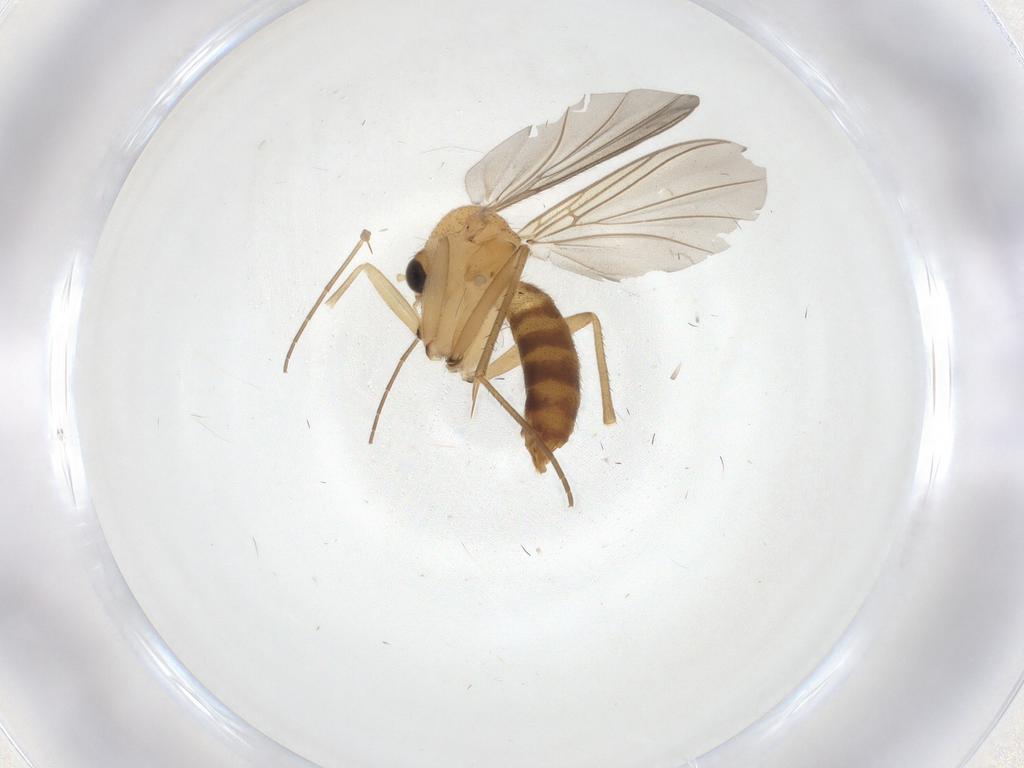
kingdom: Animalia
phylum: Arthropoda
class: Insecta
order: Diptera
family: Mycetophilidae
